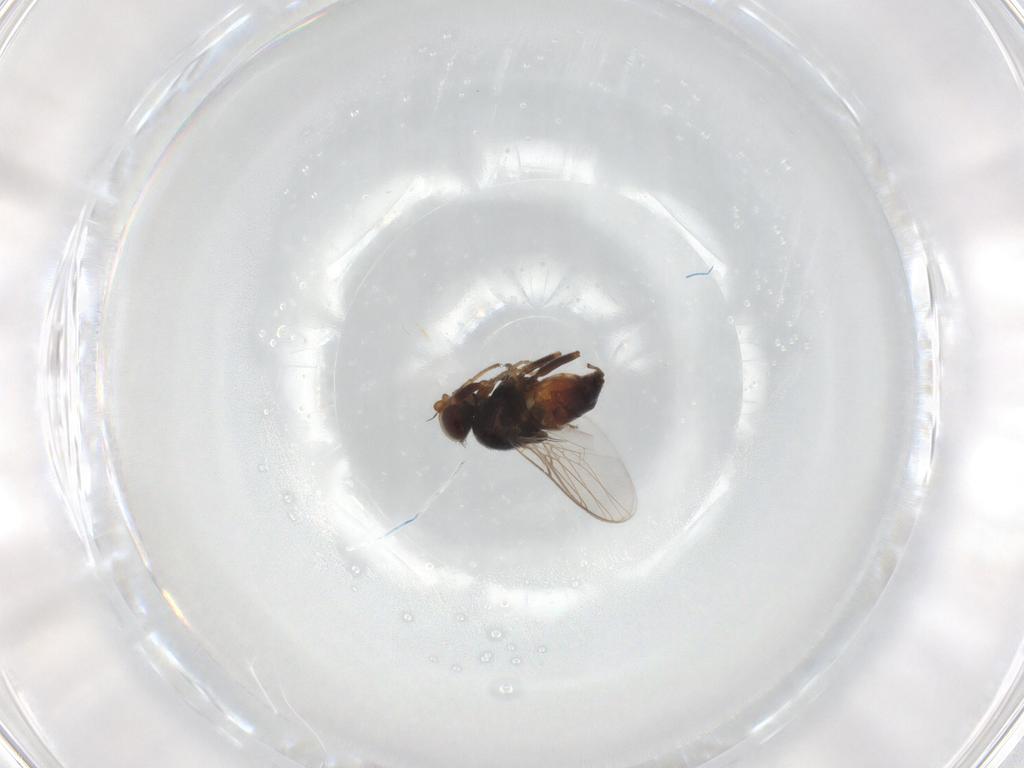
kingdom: Animalia
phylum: Arthropoda
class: Insecta
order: Diptera
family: Chloropidae
